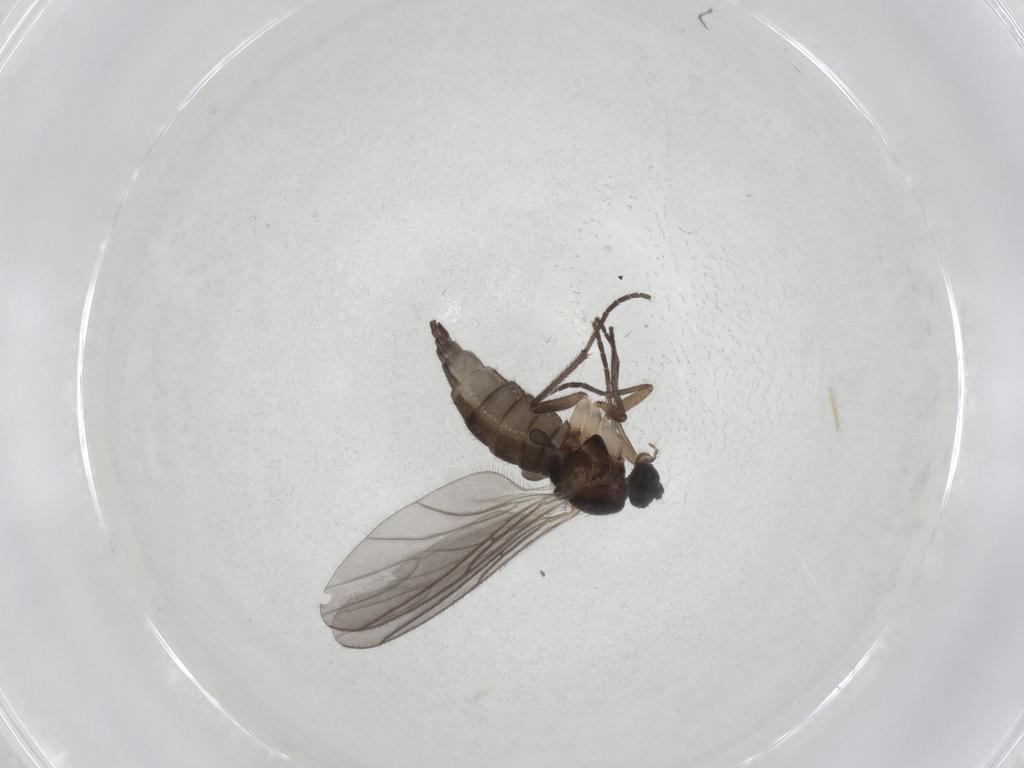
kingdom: Animalia
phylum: Arthropoda
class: Insecta
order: Diptera
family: Sciaridae
